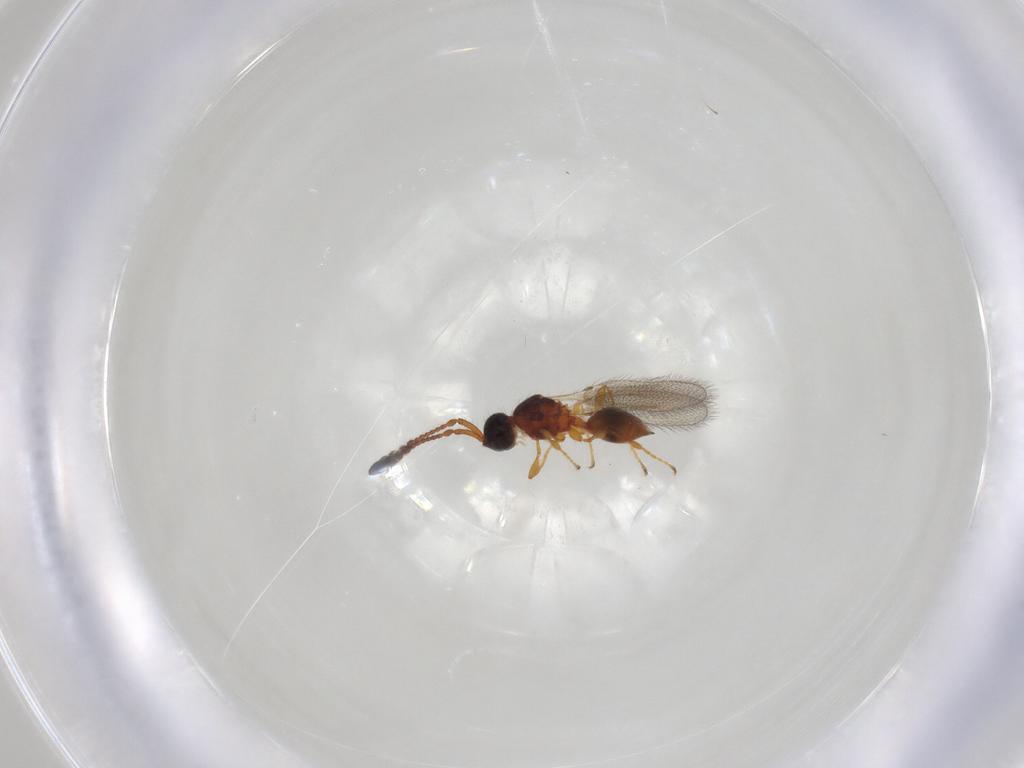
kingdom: Animalia
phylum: Arthropoda
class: Insecta
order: Hymenoptera
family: Diapriidae
